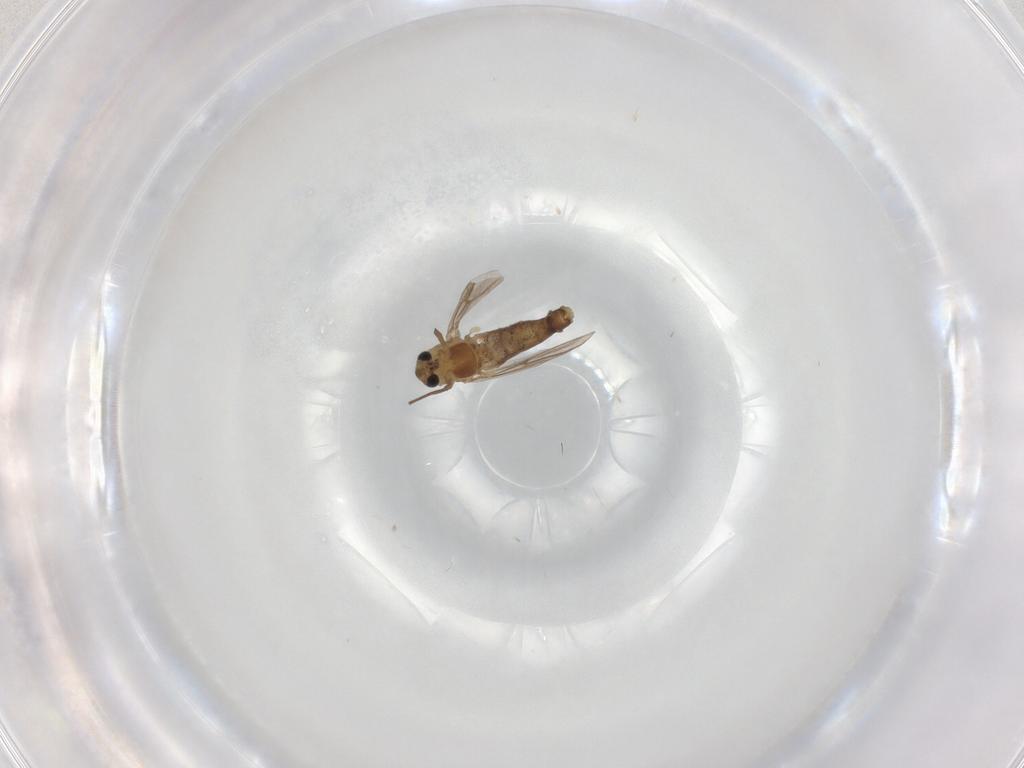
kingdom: Animalia
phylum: Arthropoda
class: Insecta
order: Diptera
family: Chironomidae
